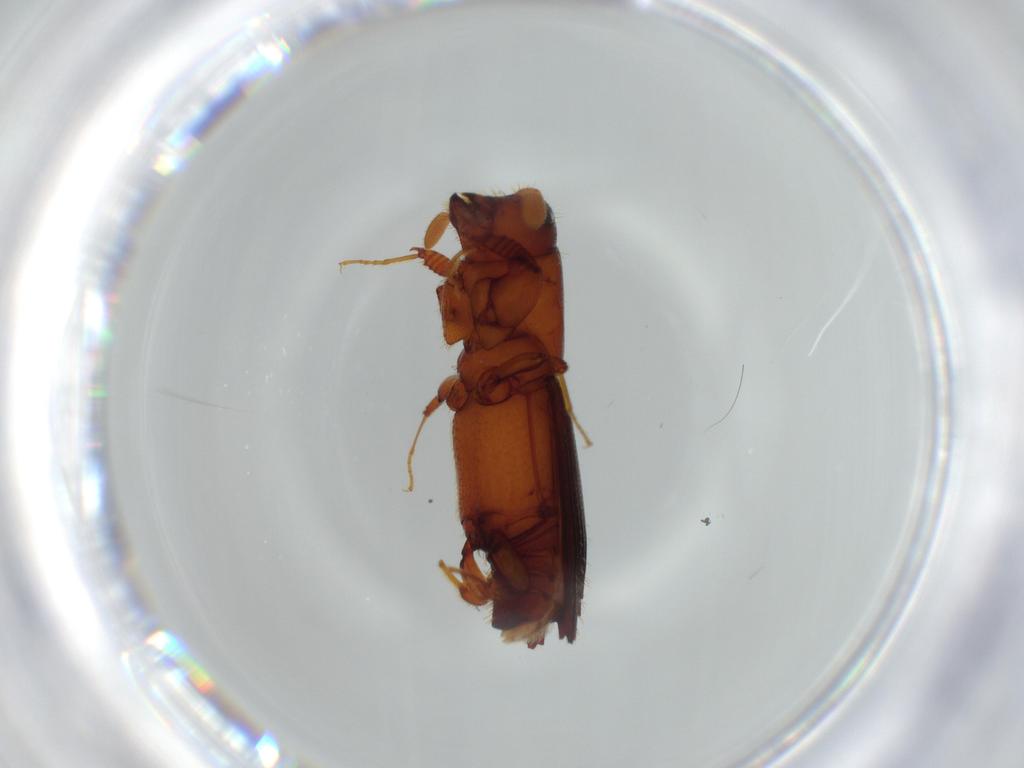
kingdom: Animalia
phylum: Arthropoda
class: Insecta
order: Coleoptera
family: Curculionidae
